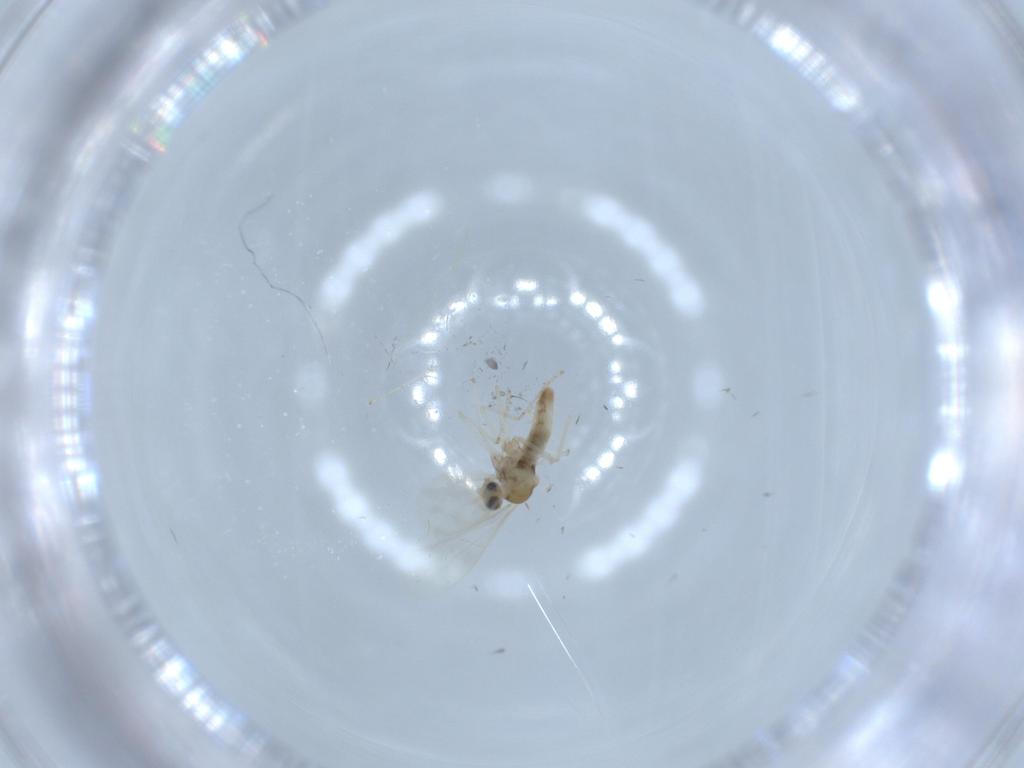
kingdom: Animalia
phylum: Arthropoda
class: Insecta
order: Diptera
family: Cecidomyiidae
